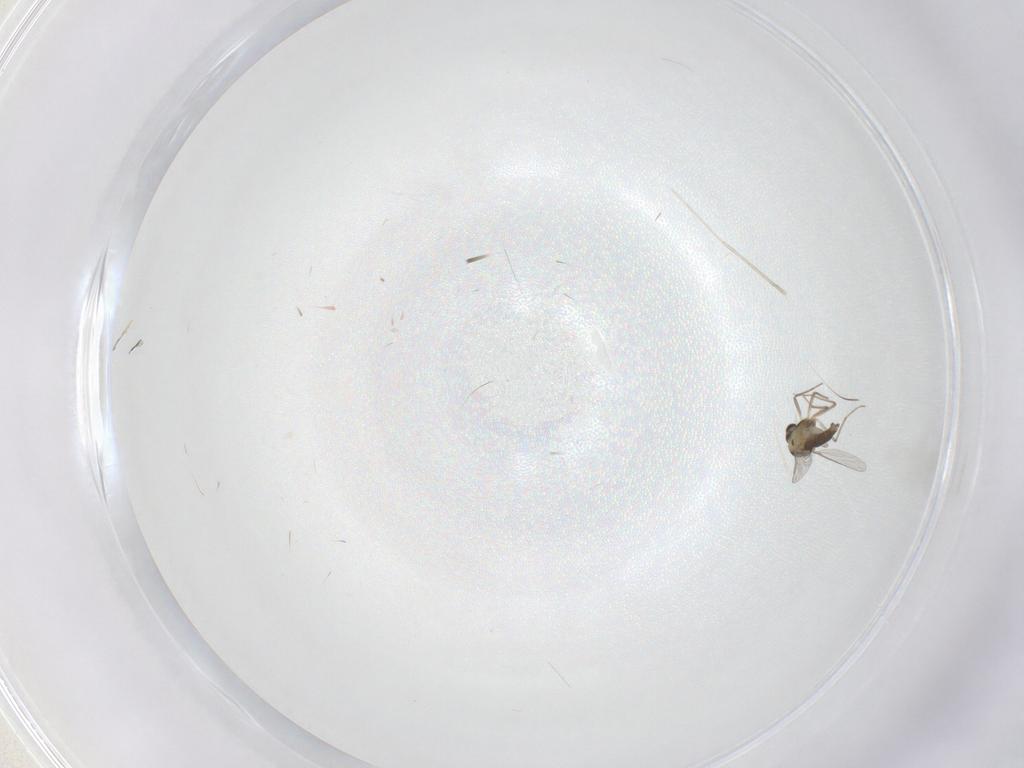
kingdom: Animalia
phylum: Arthropoda
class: Insecta
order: Diptera
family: Chironomidae
